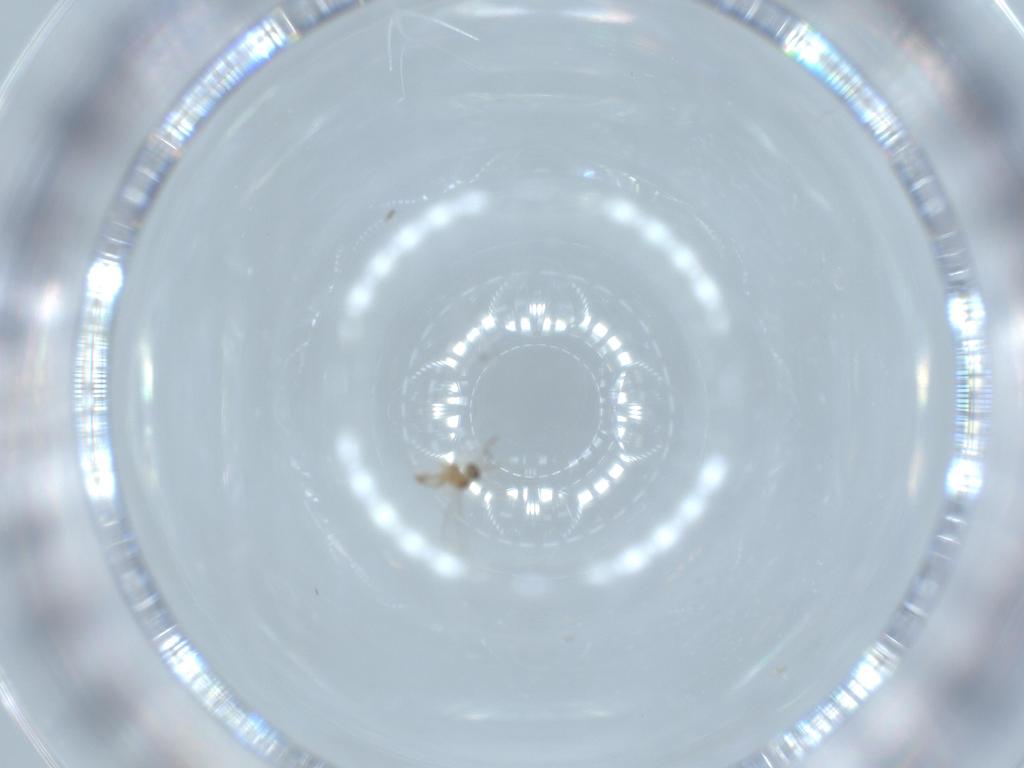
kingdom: Animalia
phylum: Arthropoda
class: Insecta
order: Diptera
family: Cecidomyiidae
